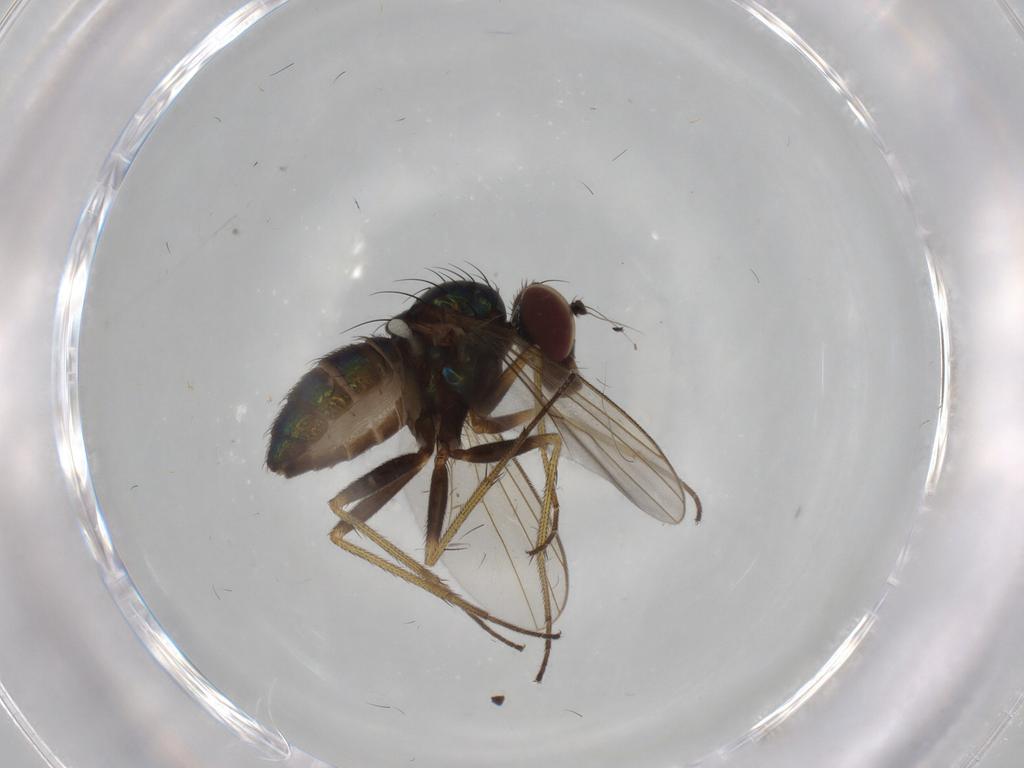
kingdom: Animalia
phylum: Arthropoda
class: Insecta
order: Diptera
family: Dolichopodidae
